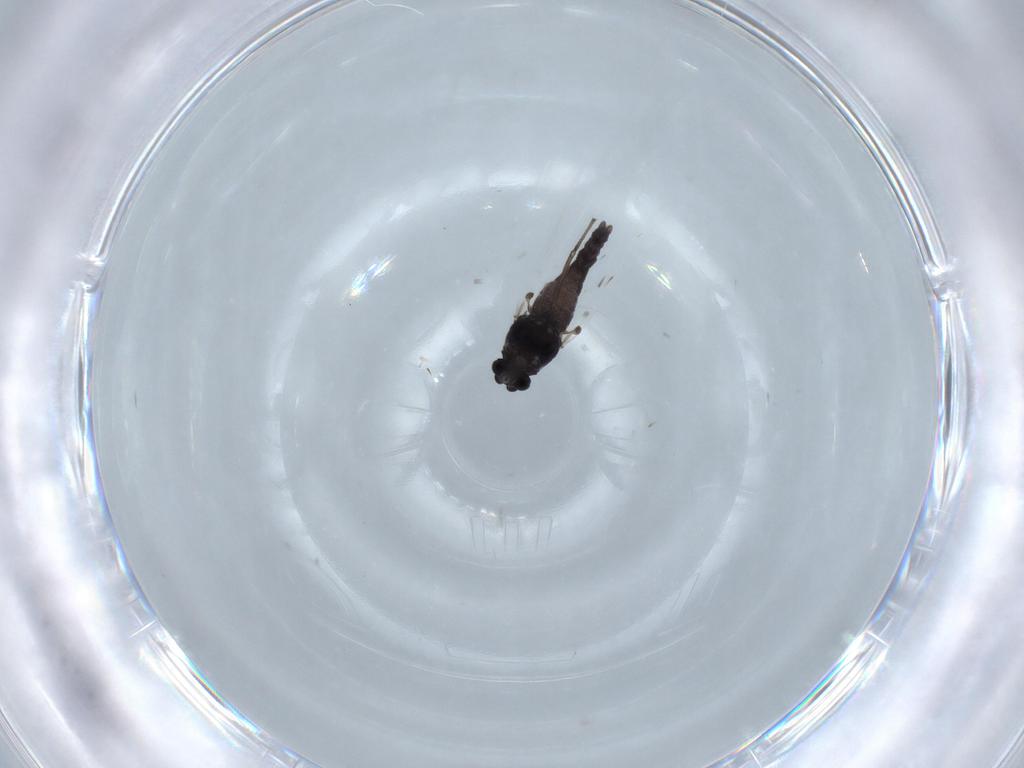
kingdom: Animalia
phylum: Arthropoda
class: Insecta
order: Diptera
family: Chironomidae
